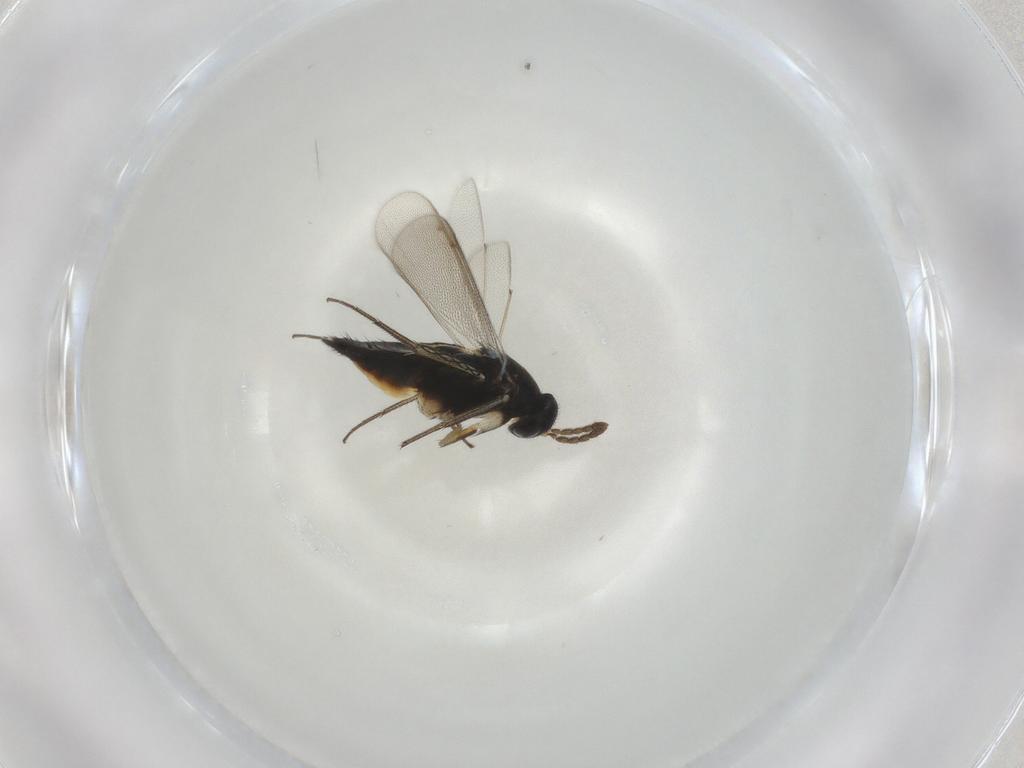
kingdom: Animalia
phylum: Arthropoda
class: Insecta
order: Hymenoptera
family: Eulophidae
